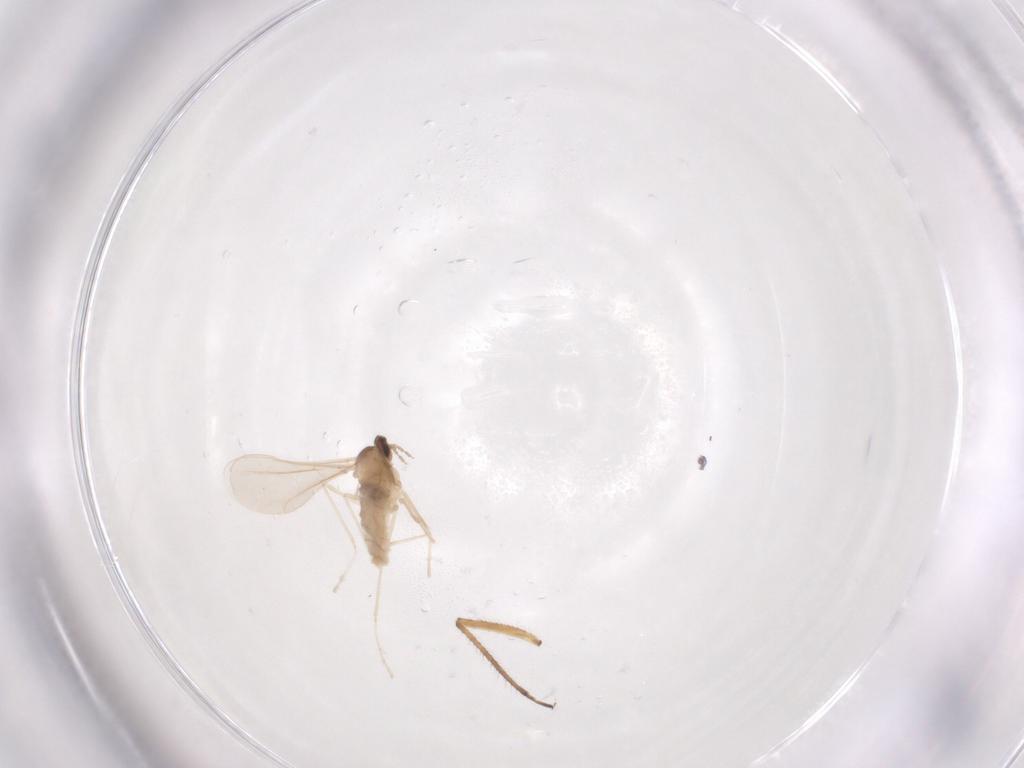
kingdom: Animalia
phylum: Arthropoda
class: Insecta
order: Diptera
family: Cecidomyiidae
